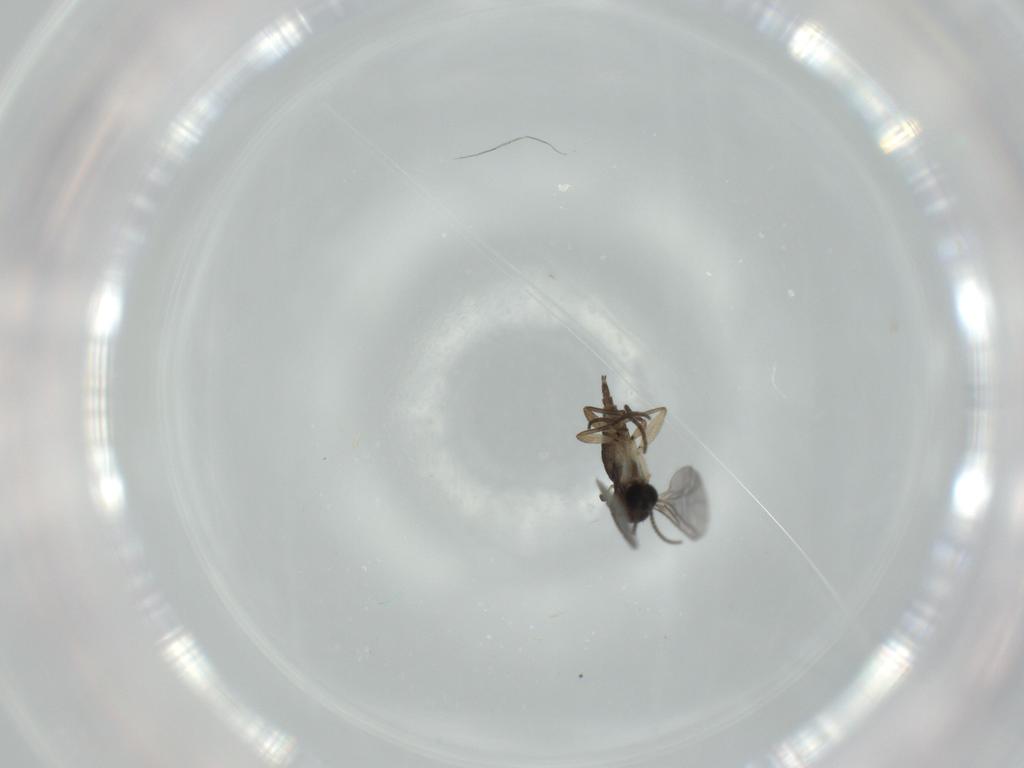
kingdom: Animalia
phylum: Arthropoda
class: Insecta
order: Diptera
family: Sciaridae
